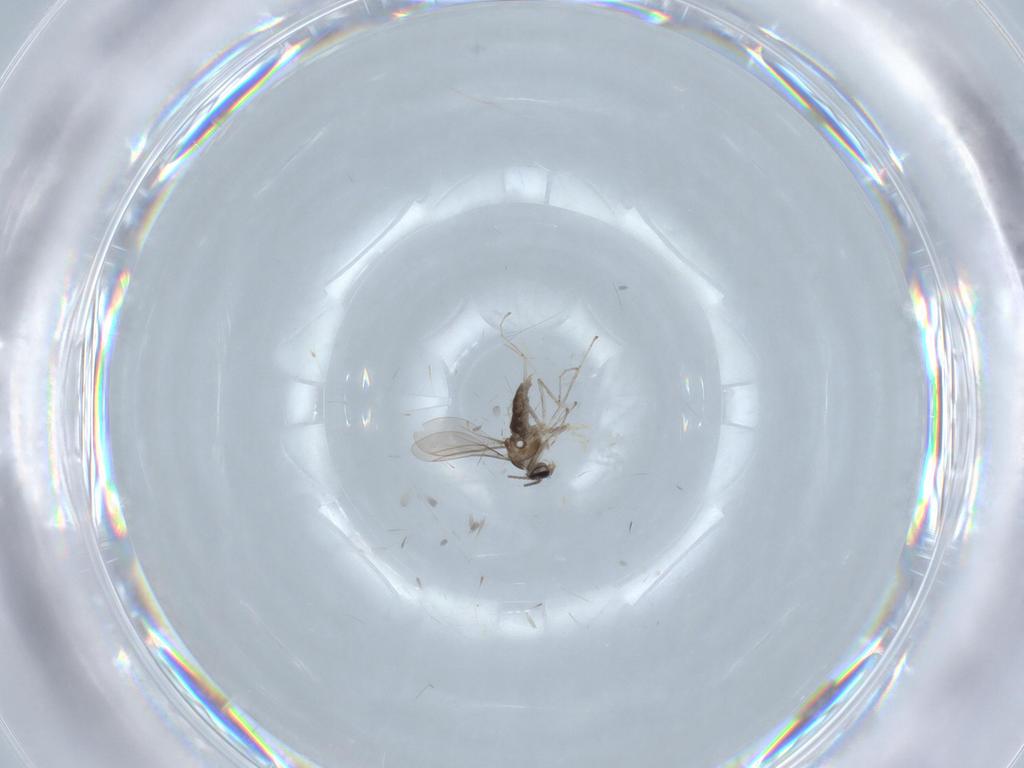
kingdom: Animalia
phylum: Arthropoda
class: Insecta
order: Diptera
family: Cecidomyiidae
